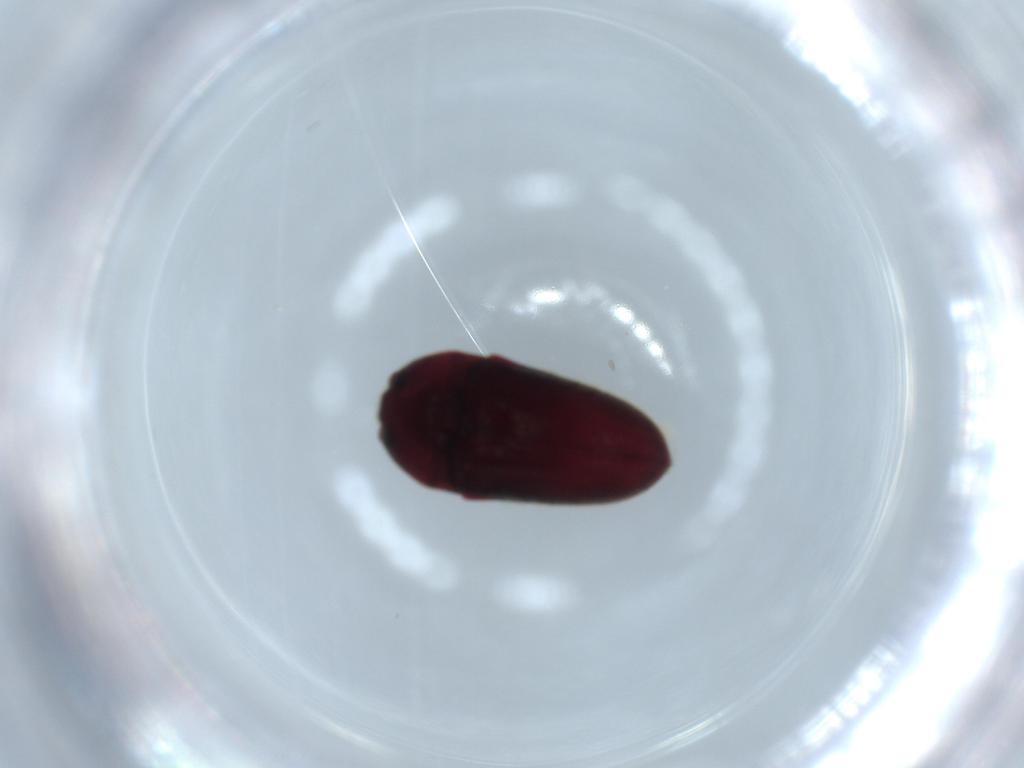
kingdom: Animalia
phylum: Arthropoda
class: Insecta
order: Coleoptera
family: Throscidae
